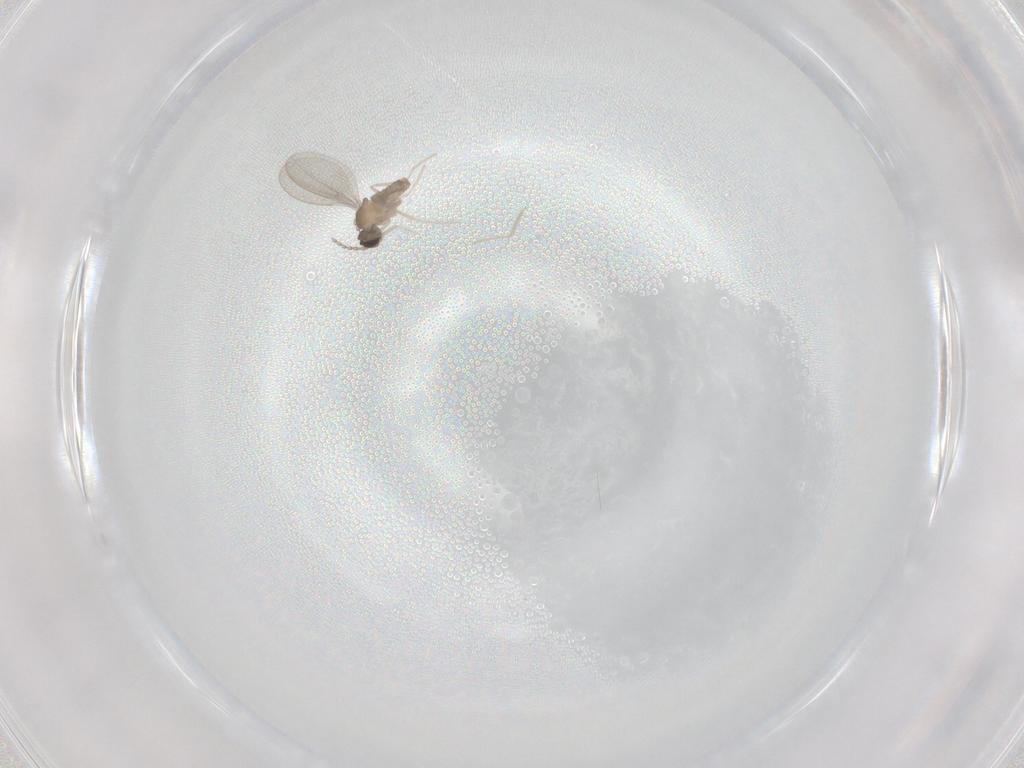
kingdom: Animalia
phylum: Arthropoda
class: Insecta
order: Diptera
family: Cecidomyiidae
